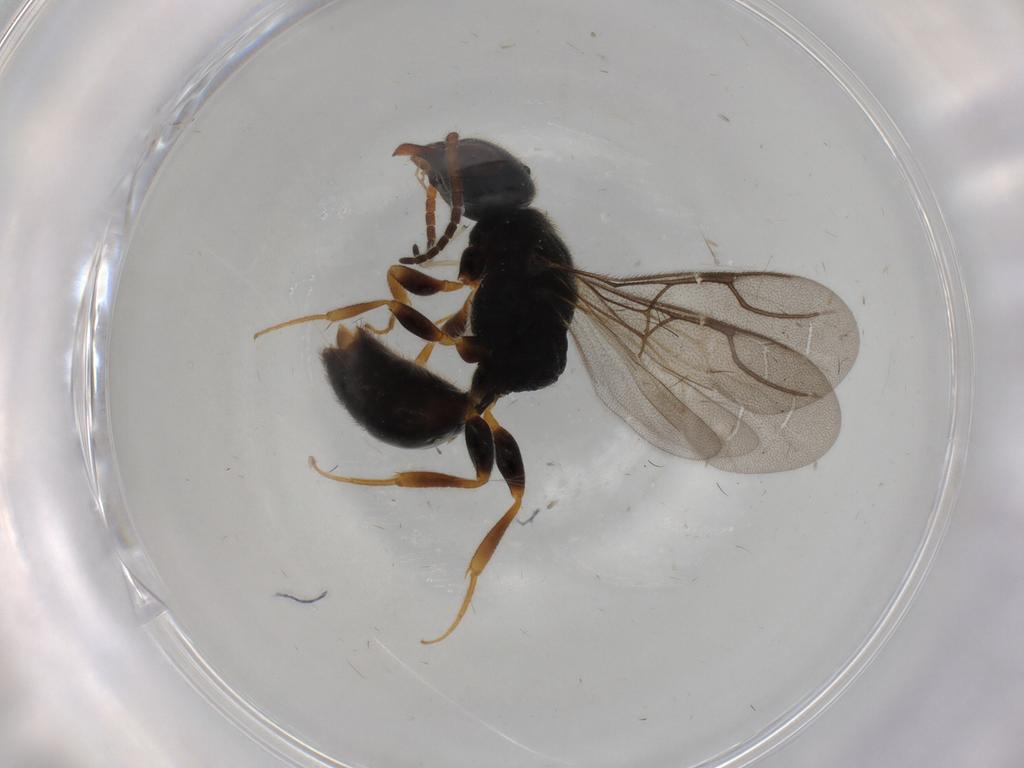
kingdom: Animalia
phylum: Arthropoda
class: Insecta
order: Hymenoptera
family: Bethylidae
